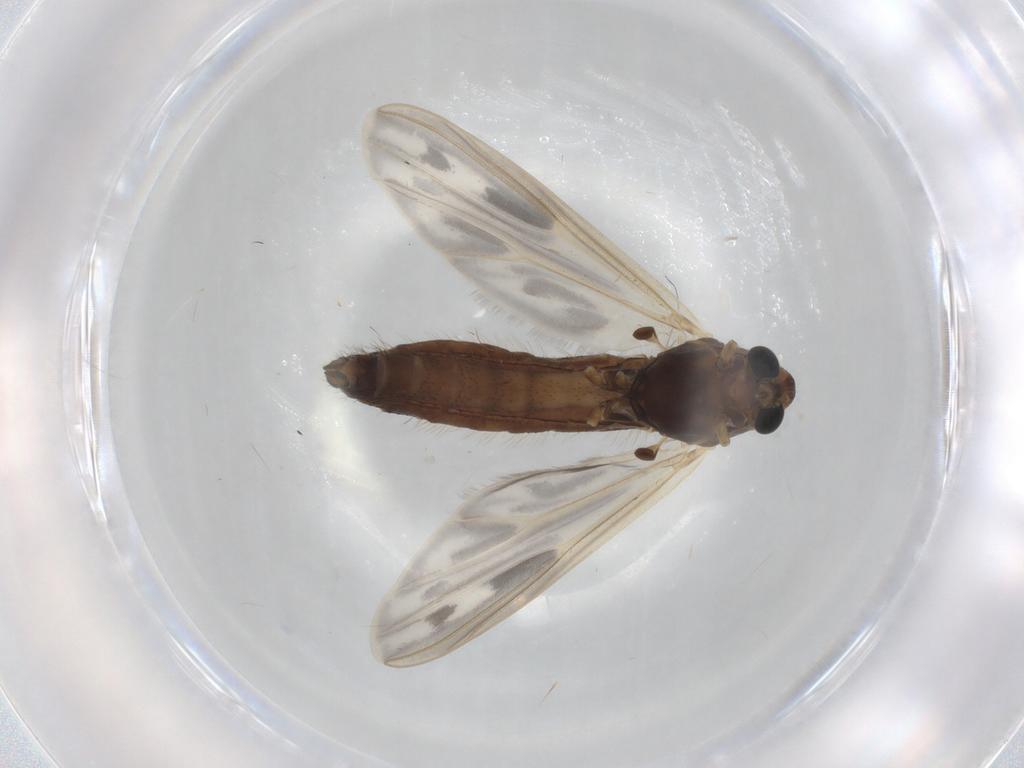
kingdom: Animalia
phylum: Arthropoda
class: Insecta
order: Diptera
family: Chironomidae
